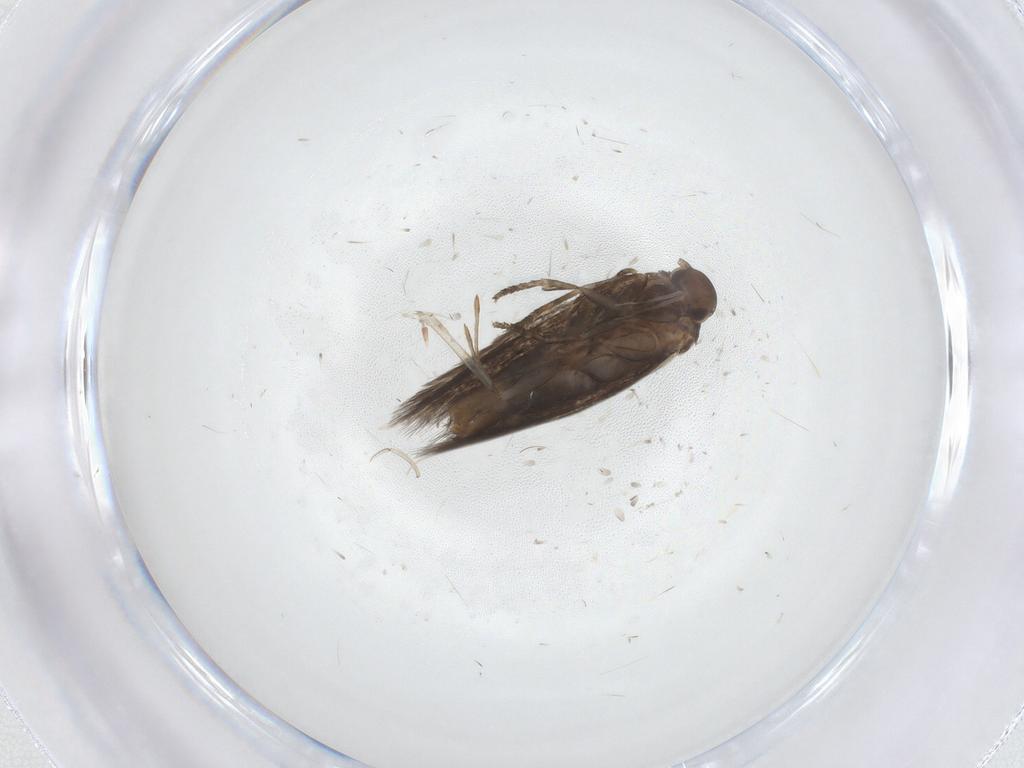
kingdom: Animalia
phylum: Arthropoda
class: Insecta
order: Lepidoptera
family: Elachistidae
